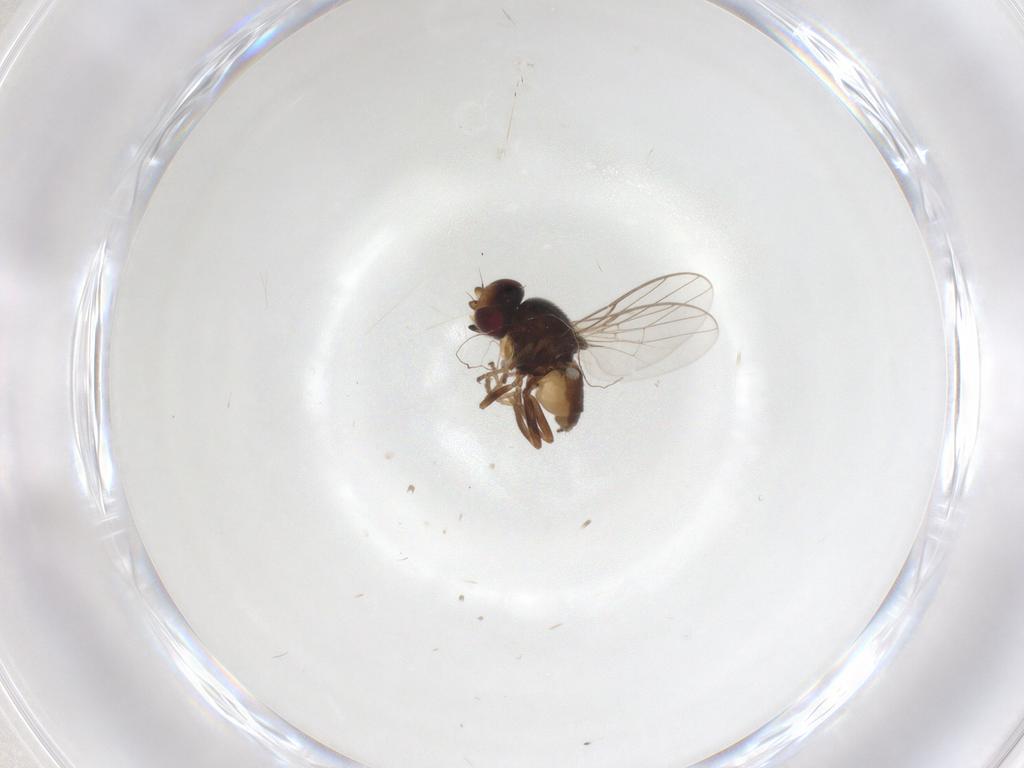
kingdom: Animalia
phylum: Arthropoda
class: Insecta
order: Diptera
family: Chloropidae
